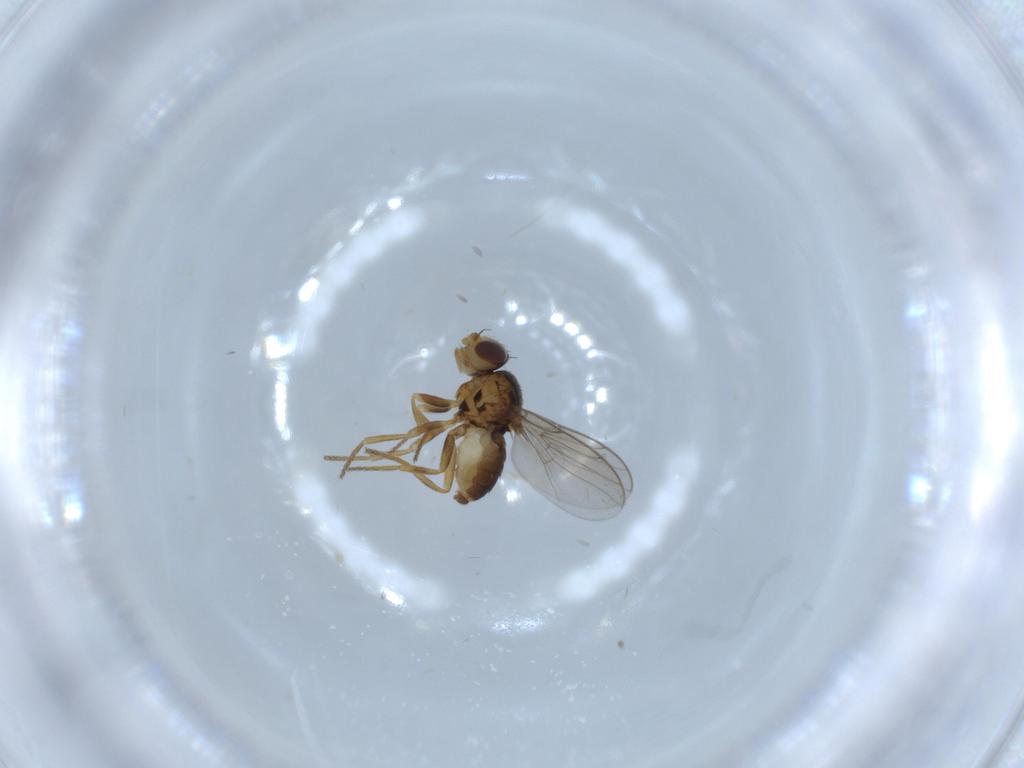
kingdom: Animalia
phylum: Arthropoda
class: Insecta
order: Diptera
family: Chloropidae
